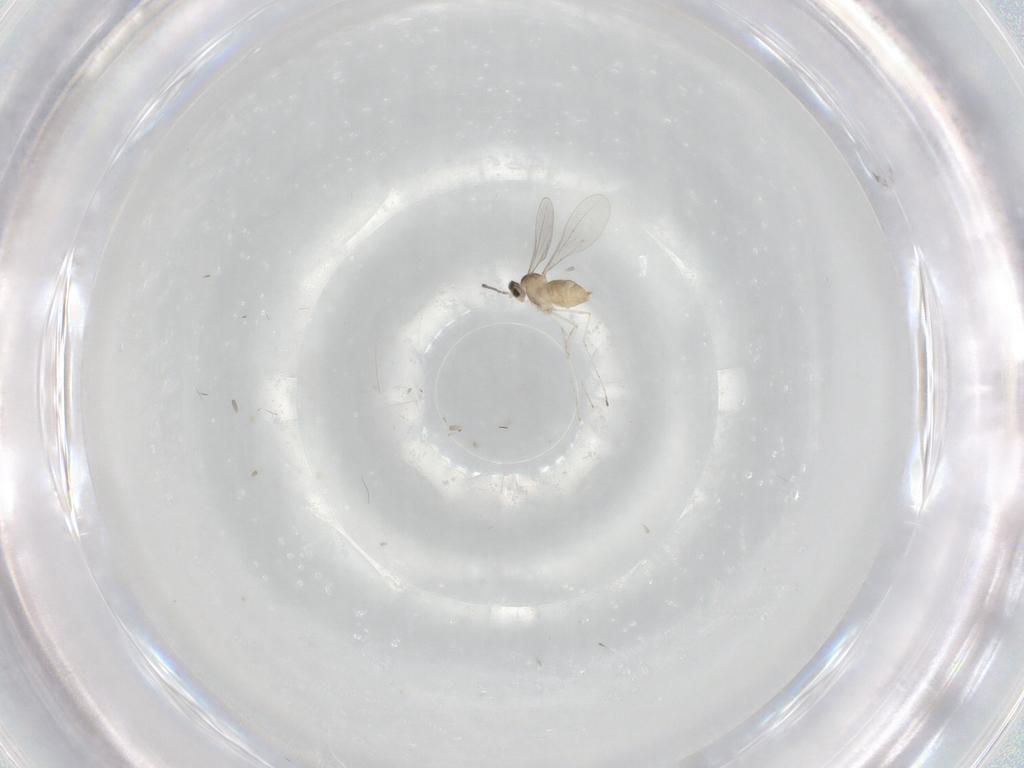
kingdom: Animalia
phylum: Arthropoda
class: Insecta
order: Diptera
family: Cecidomyiidae
